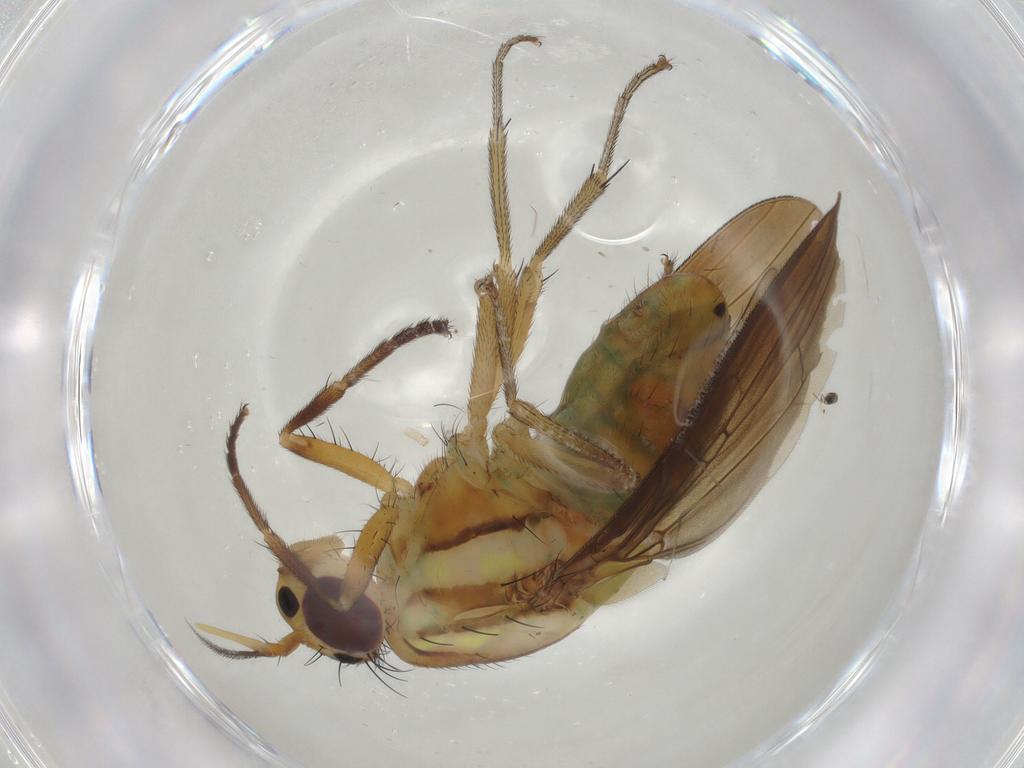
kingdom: Animalia
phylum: Arthropoda
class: Insecta
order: Diptera
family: Lauxaniidae
